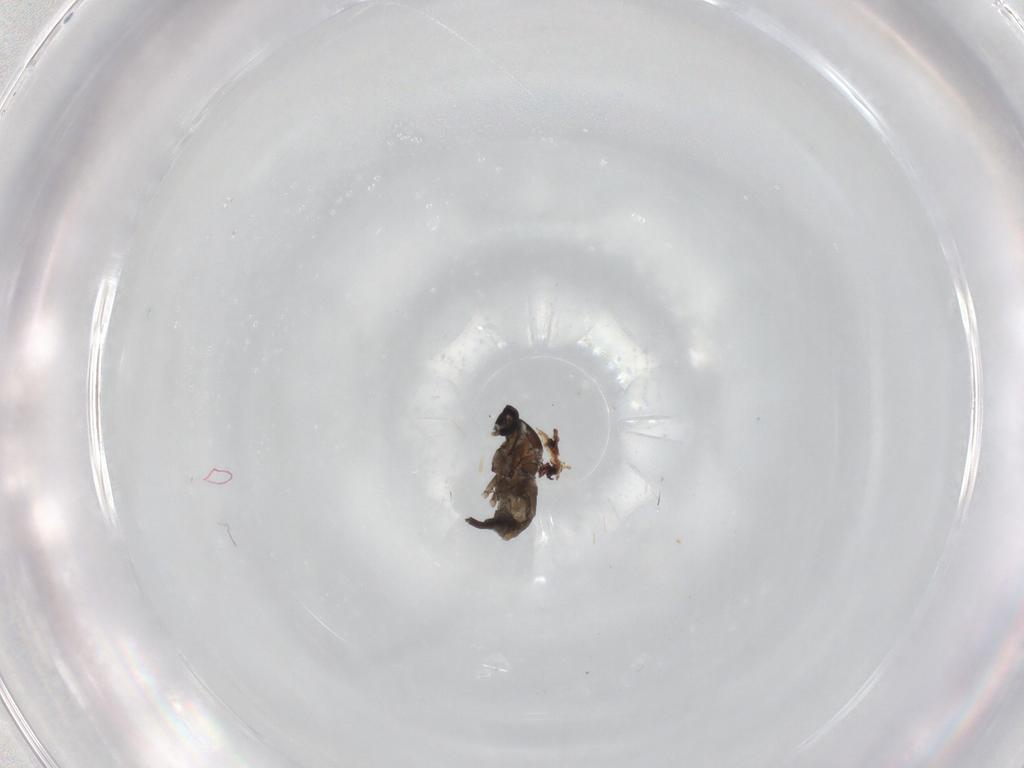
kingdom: Animalia
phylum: Arthropoda
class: Insecta
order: Diptera
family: Cecidomyiidae
